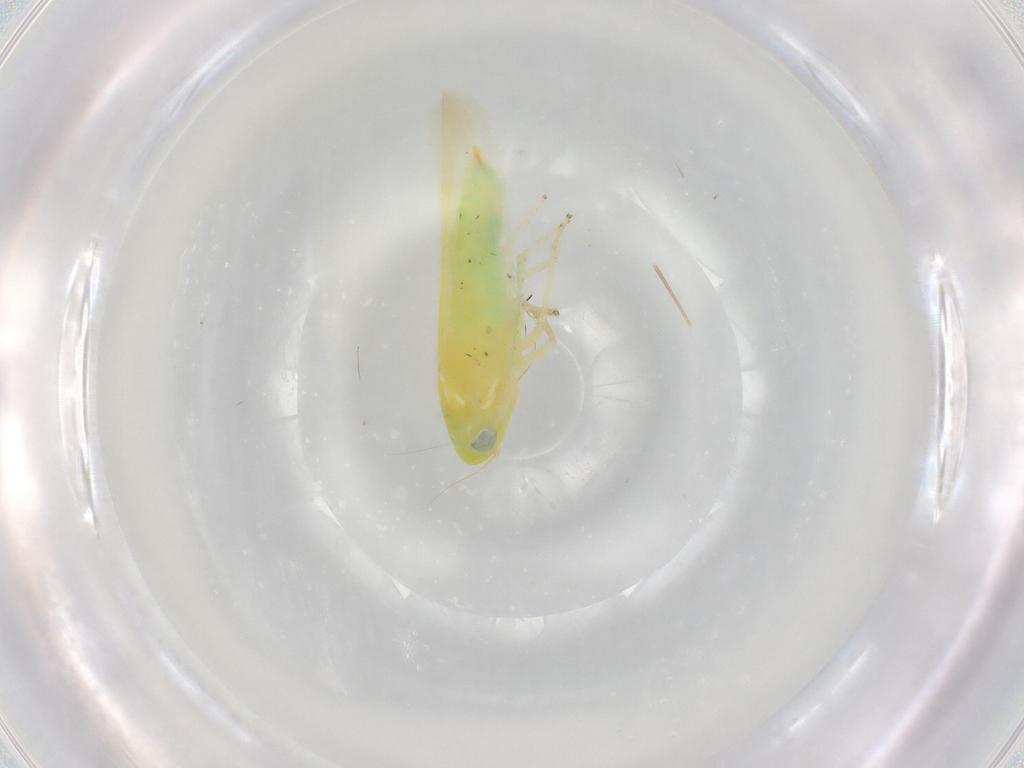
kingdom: Animalia
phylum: Arthropoda
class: Insecta
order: Hemiptera
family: Cicadellidae
